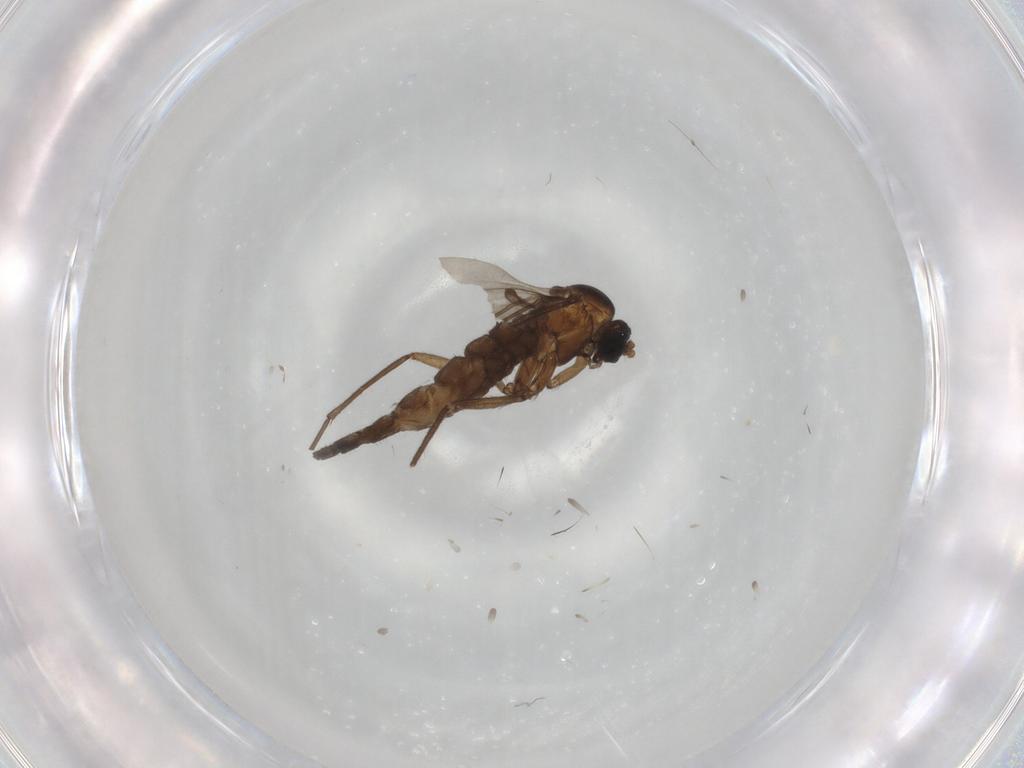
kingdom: Animalia
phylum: Arthropoda
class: Insecta
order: Diptera
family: Sciaridae
